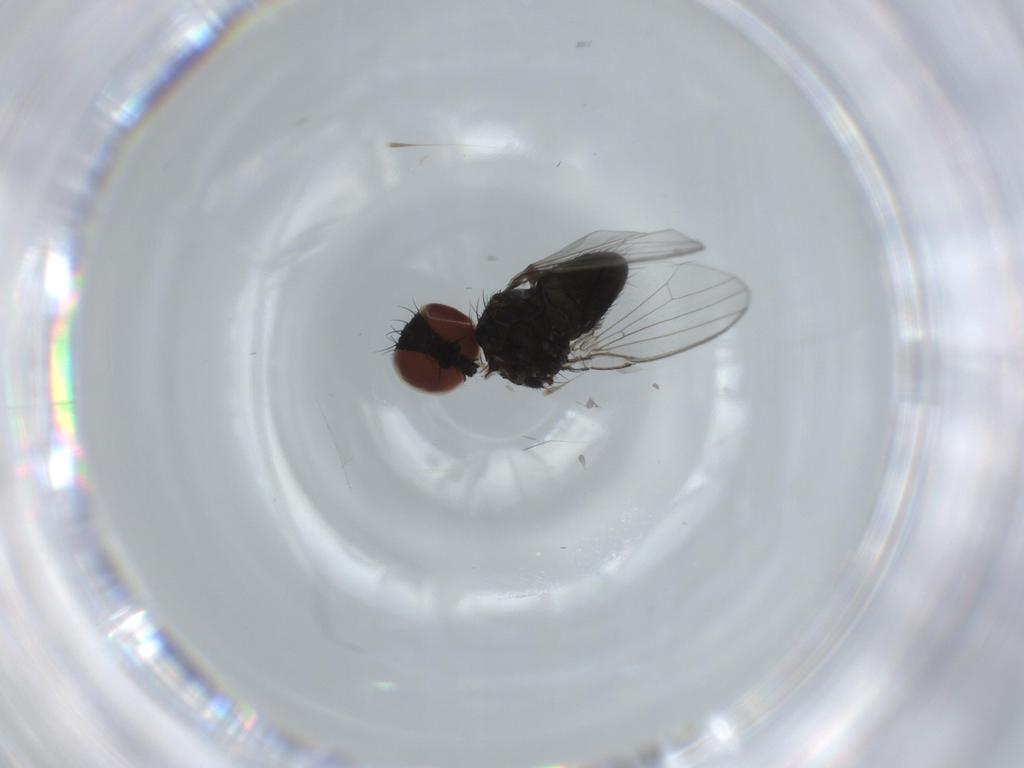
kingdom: Animalia
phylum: Arthropoda
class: Insecta
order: Diptera
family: Milichiidae
